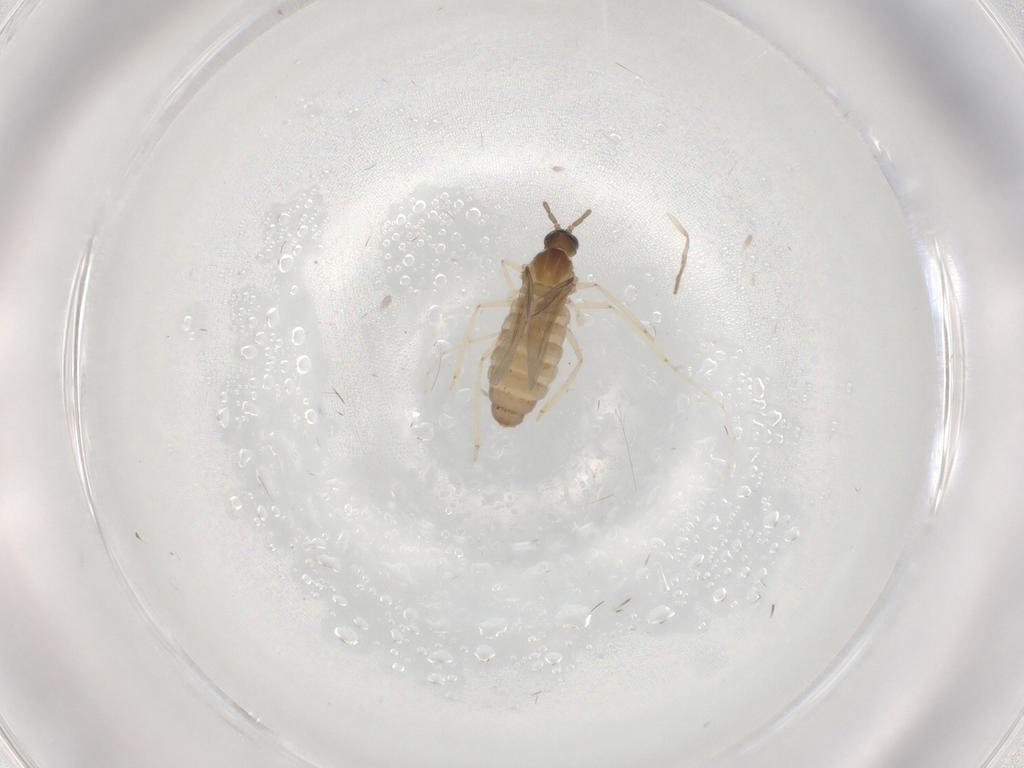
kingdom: Animalia
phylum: Arthropoda
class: Insecta
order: Diptera
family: Cecidomyiidae
